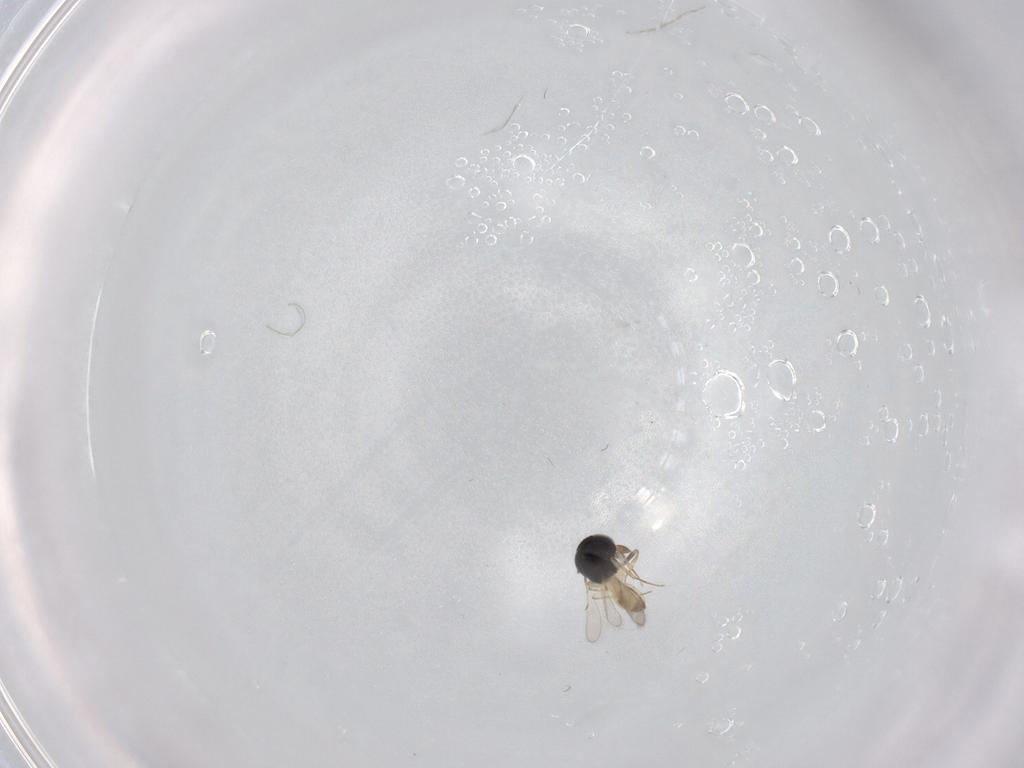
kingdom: Animalia
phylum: Arthropoda
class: Insecta
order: Hymenoptera
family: Scelionidae
